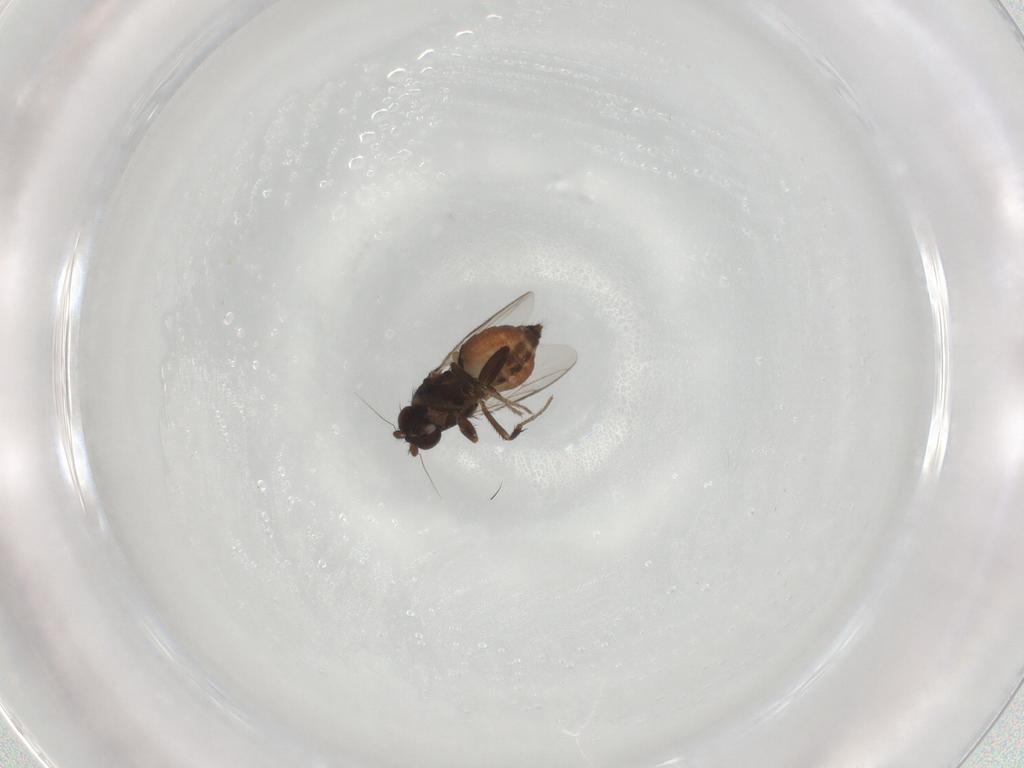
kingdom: Animalia
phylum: Arthropoda
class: Insecta
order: Diptera
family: Sphaeroceridae
